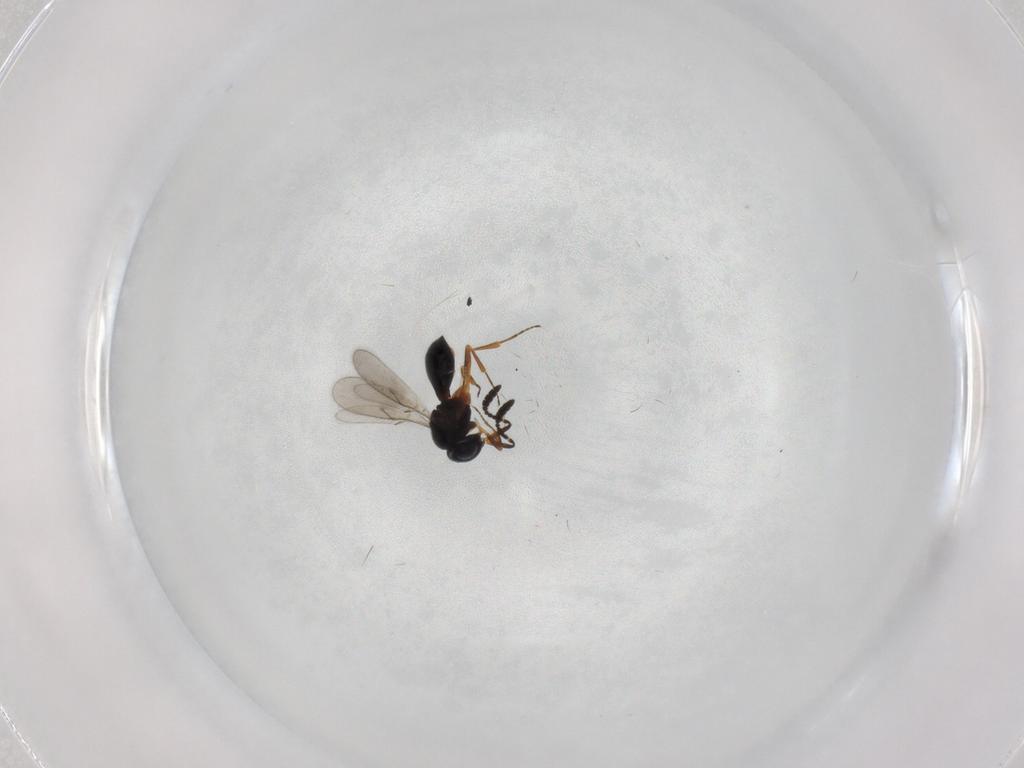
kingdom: Animalia
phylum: Arthropoda
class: Insecta
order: Hymenoptera
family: Scelionidae
